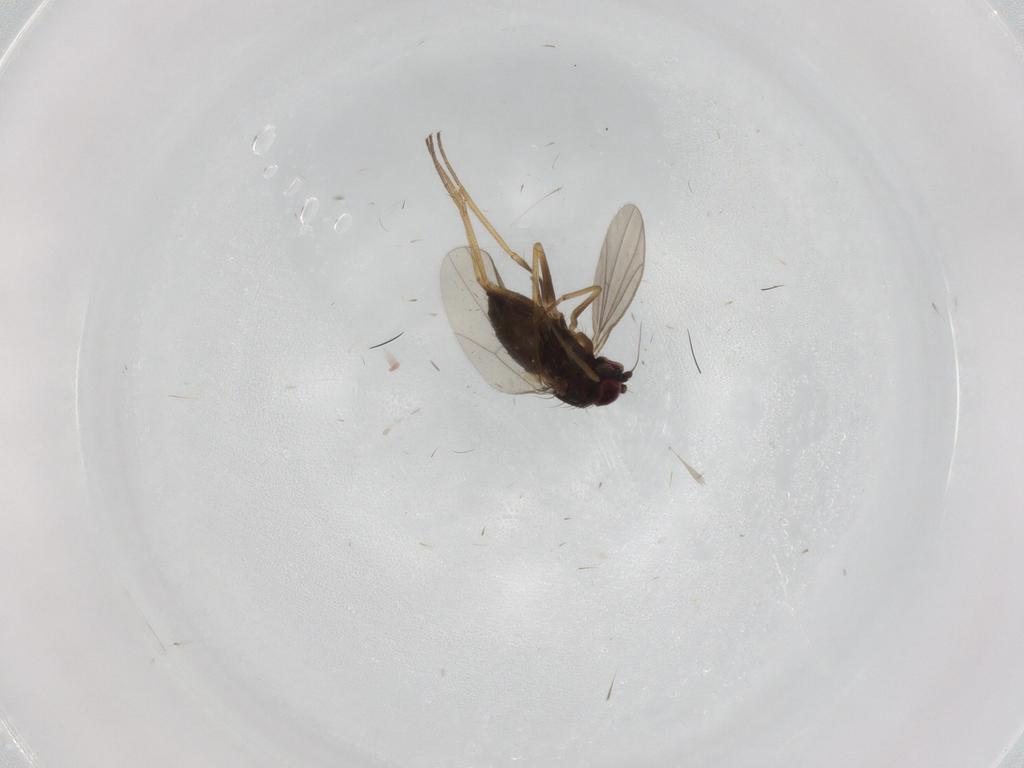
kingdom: Animalia
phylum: Arthropoda
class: Insecta
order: Diptera
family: Dolichopodidae
